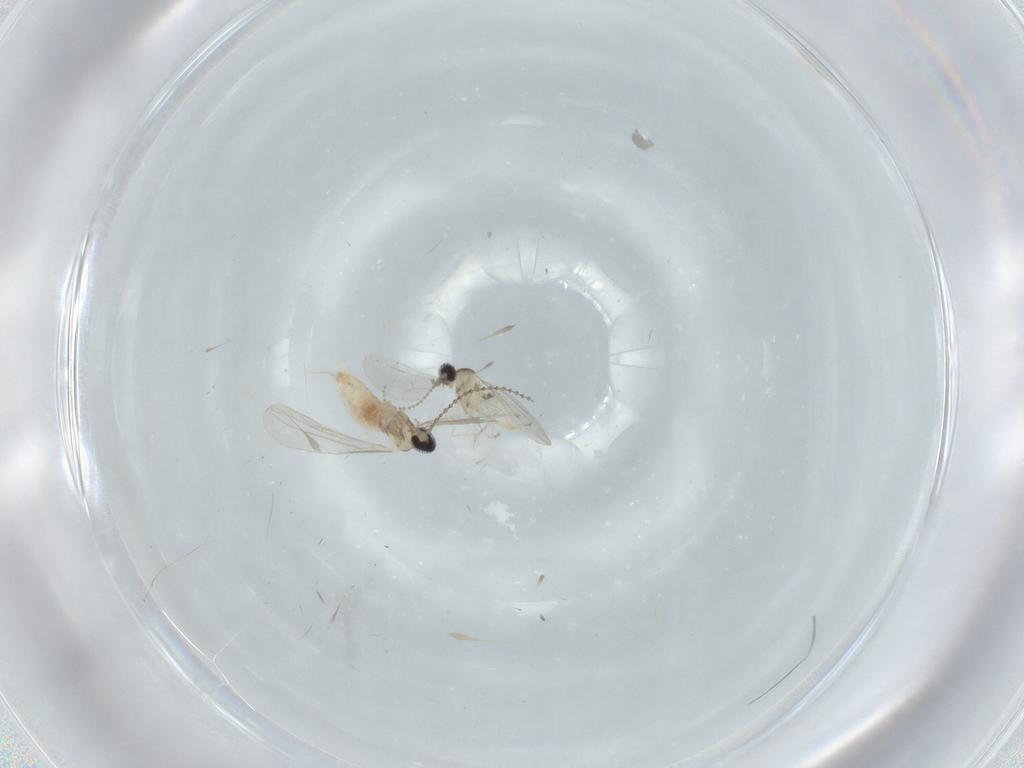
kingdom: Animalia
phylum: Arthropoda
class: Insecta
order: Diptera
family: Cecidomyiidae
